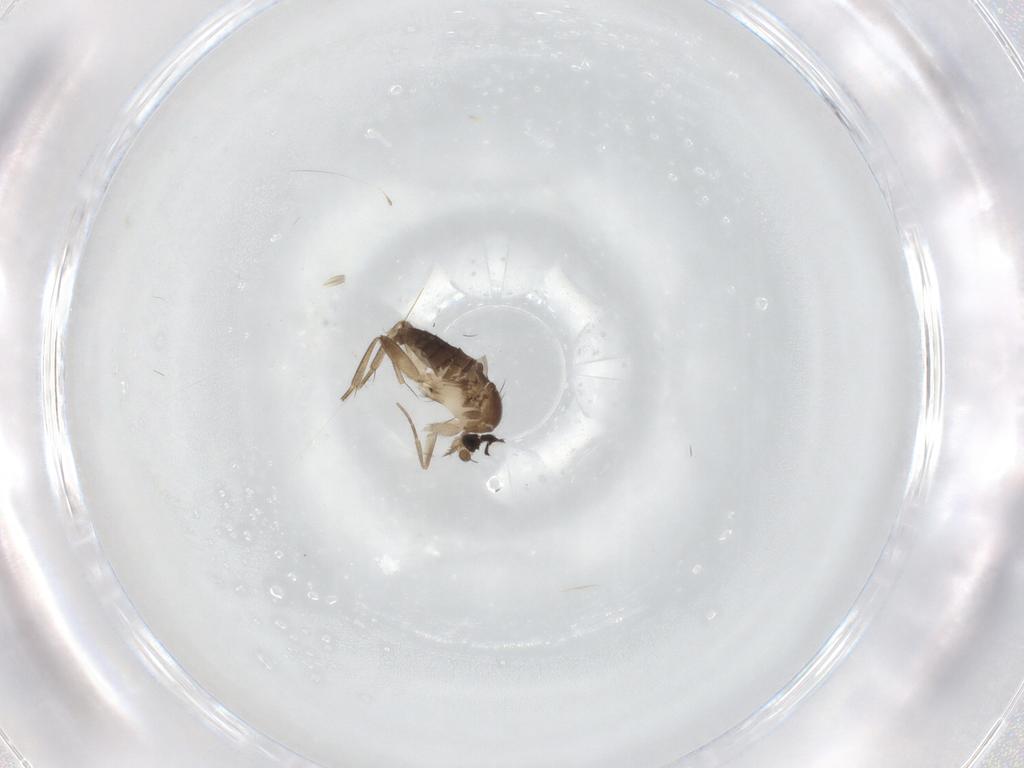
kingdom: Animalia
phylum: Arthropoda
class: Insecta
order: Diptera
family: Phoridae
